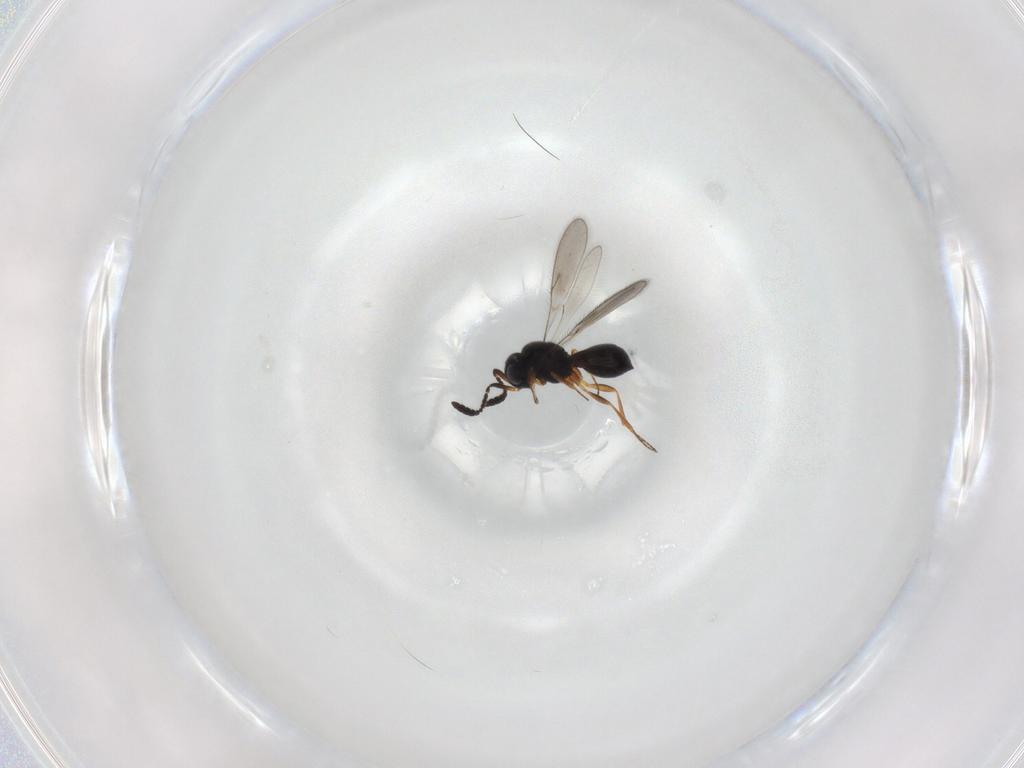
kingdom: Animalia
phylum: Arthropoda
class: Insecta
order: Hymenoptera
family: Scelionidae
